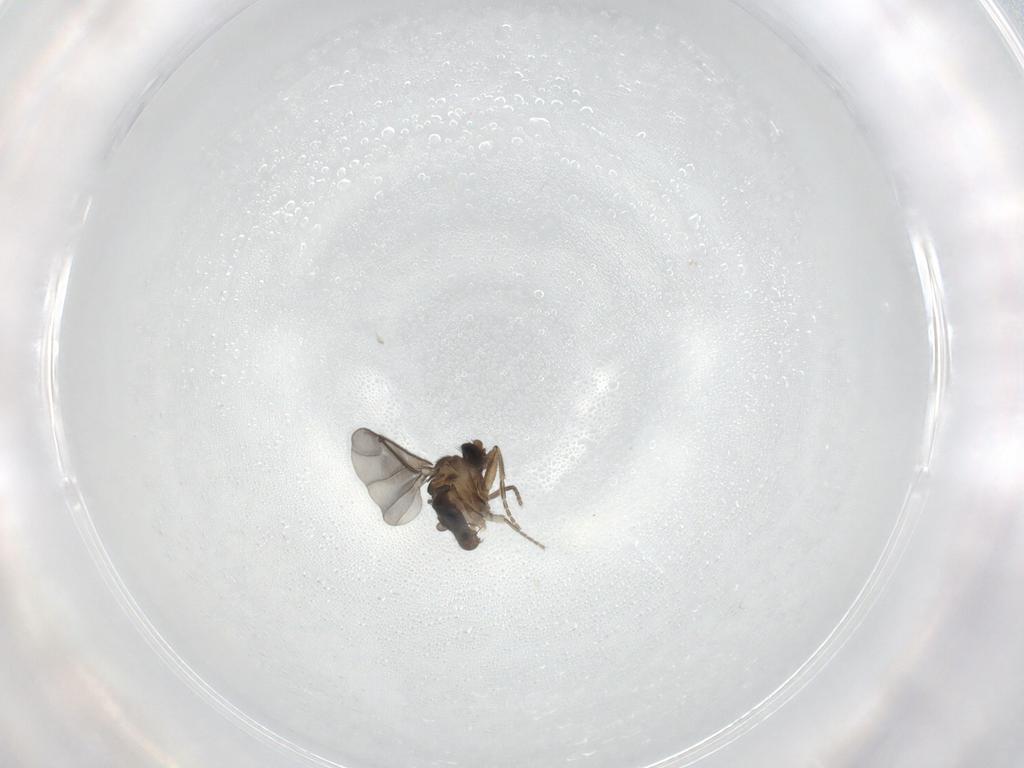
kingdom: Animalia
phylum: Arthropoda
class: Insecta
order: Diptera
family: Phoridae
